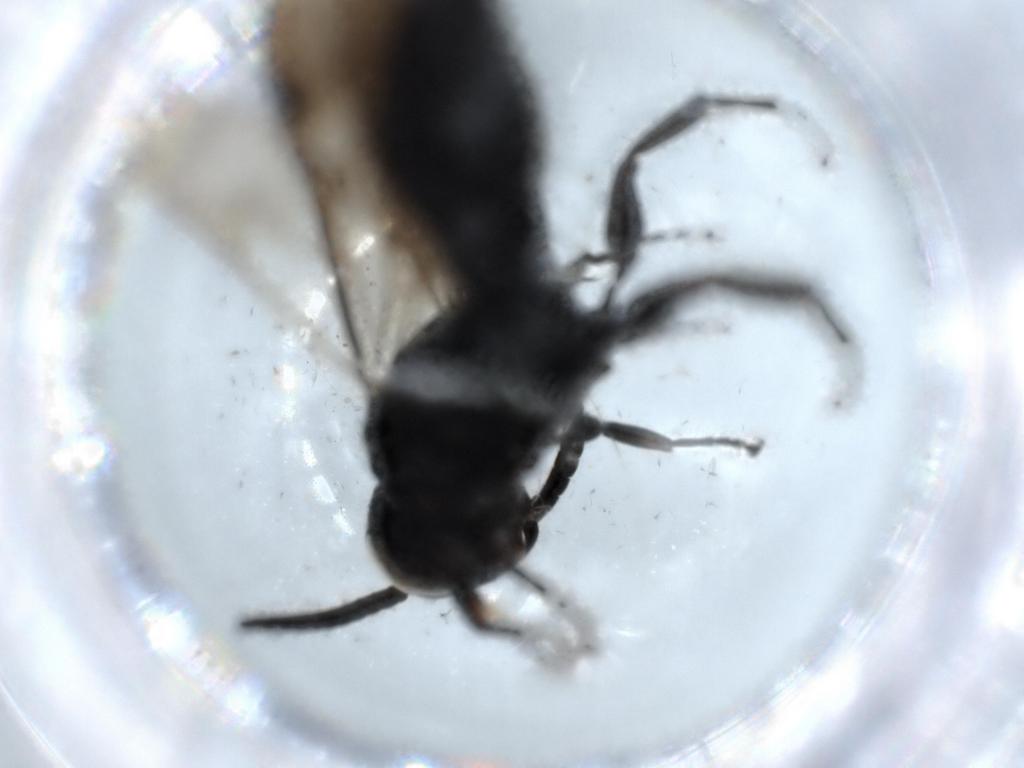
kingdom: Animalia
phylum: Arthropoda
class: Insecta
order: Hymenoptera
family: Tiphiidae
